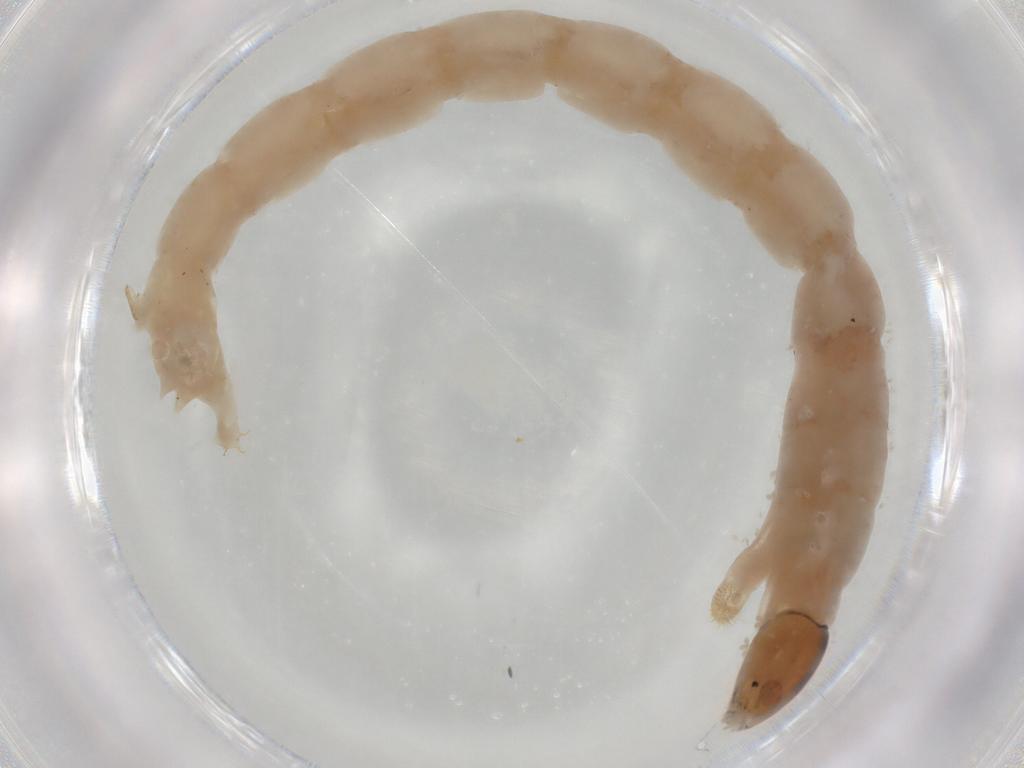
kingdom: Animalia
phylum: Arthropoda
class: Insecta
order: Diptera
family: Chironomidae
